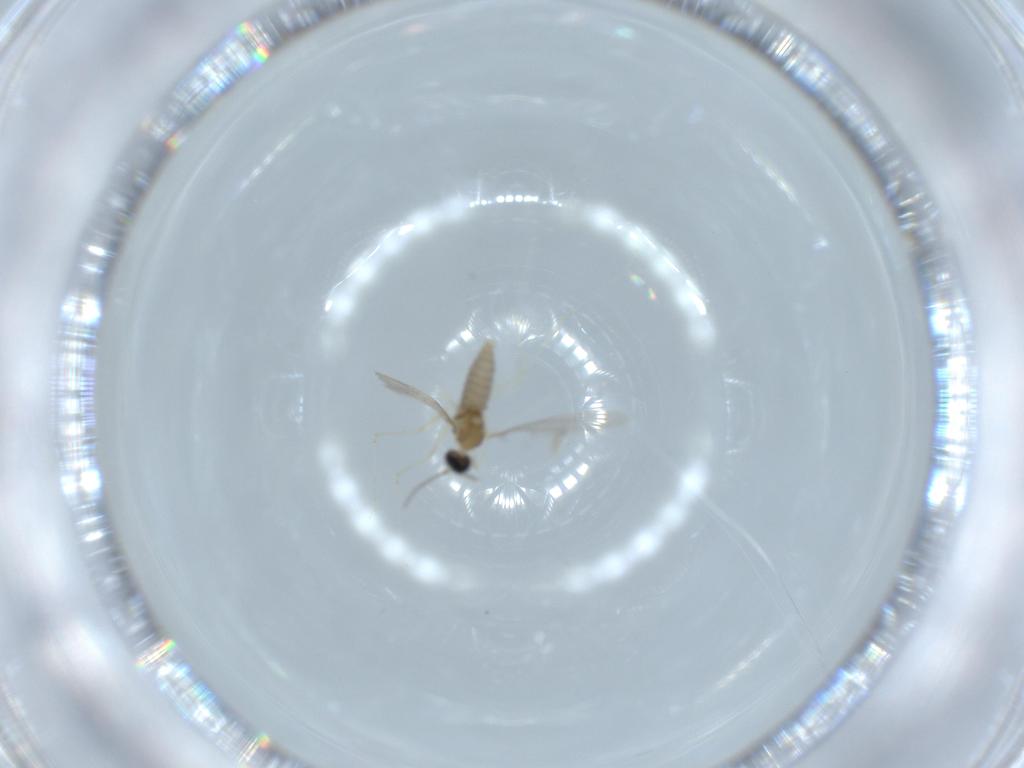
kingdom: Animalia
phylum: Arthropoda
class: Insecta
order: Diptera
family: Cecidomyiidae
